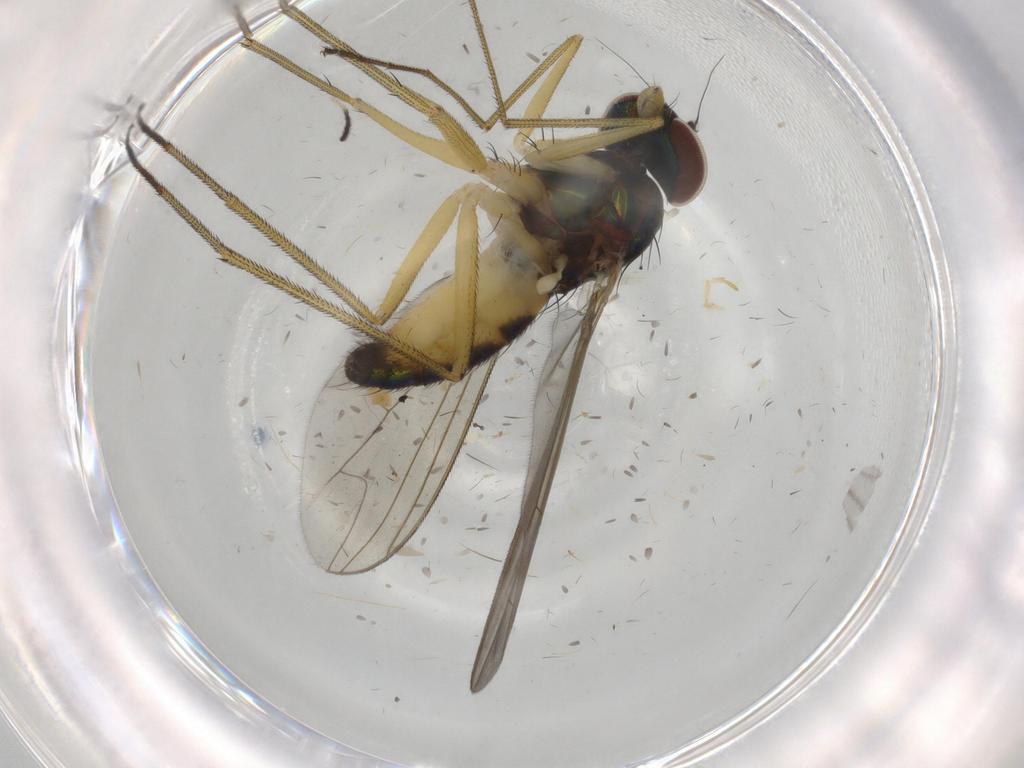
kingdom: Animalia
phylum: Arthropoda
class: Insecta
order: Diptera
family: Dolichopodidae
